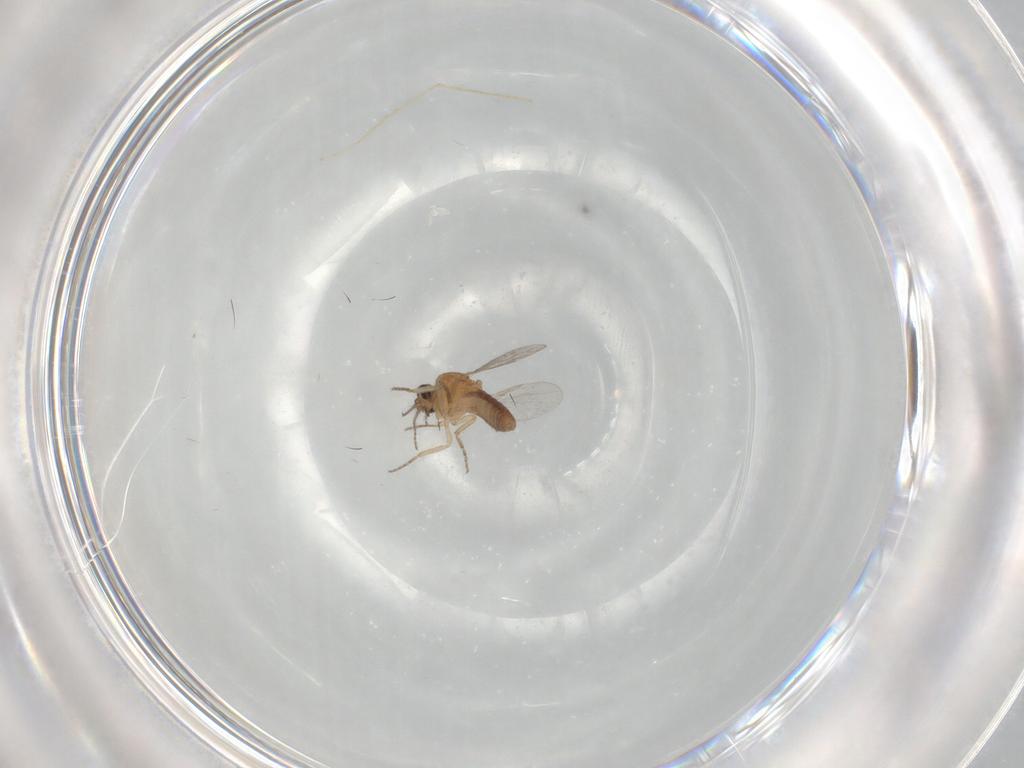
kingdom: Animalia
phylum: Arthropoda
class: Insecta
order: Diptera
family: Ceratopogonidae
